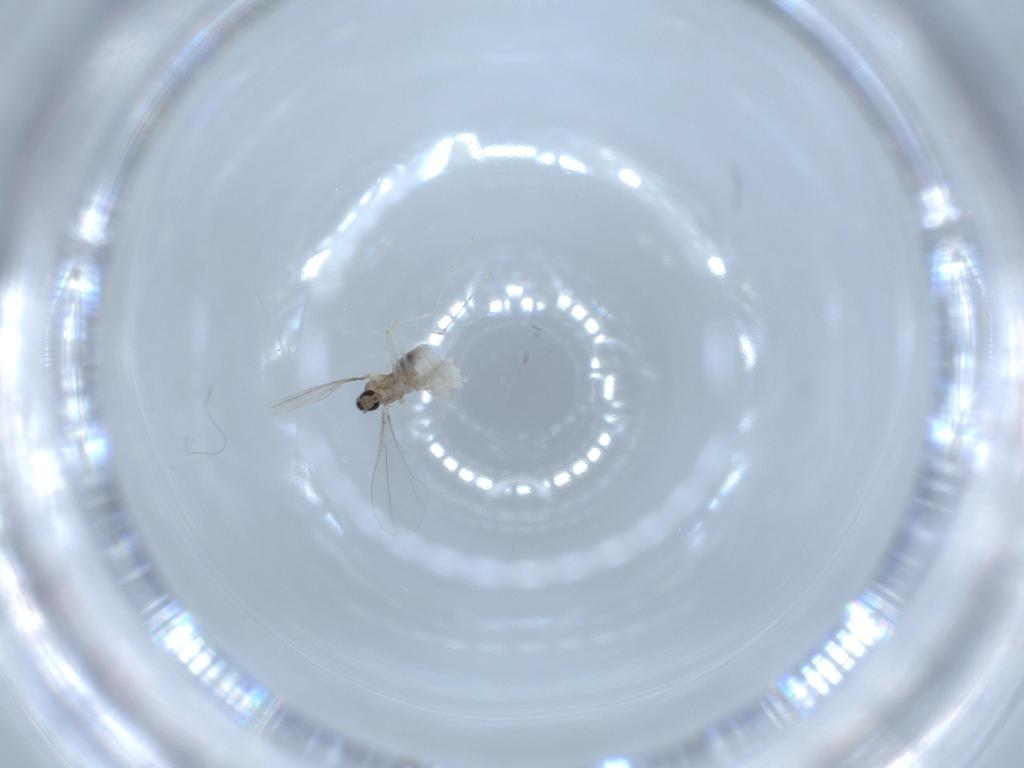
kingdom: Animalia
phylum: Arthropoda
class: Insecta
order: Diptera
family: Cecidomyiidae
